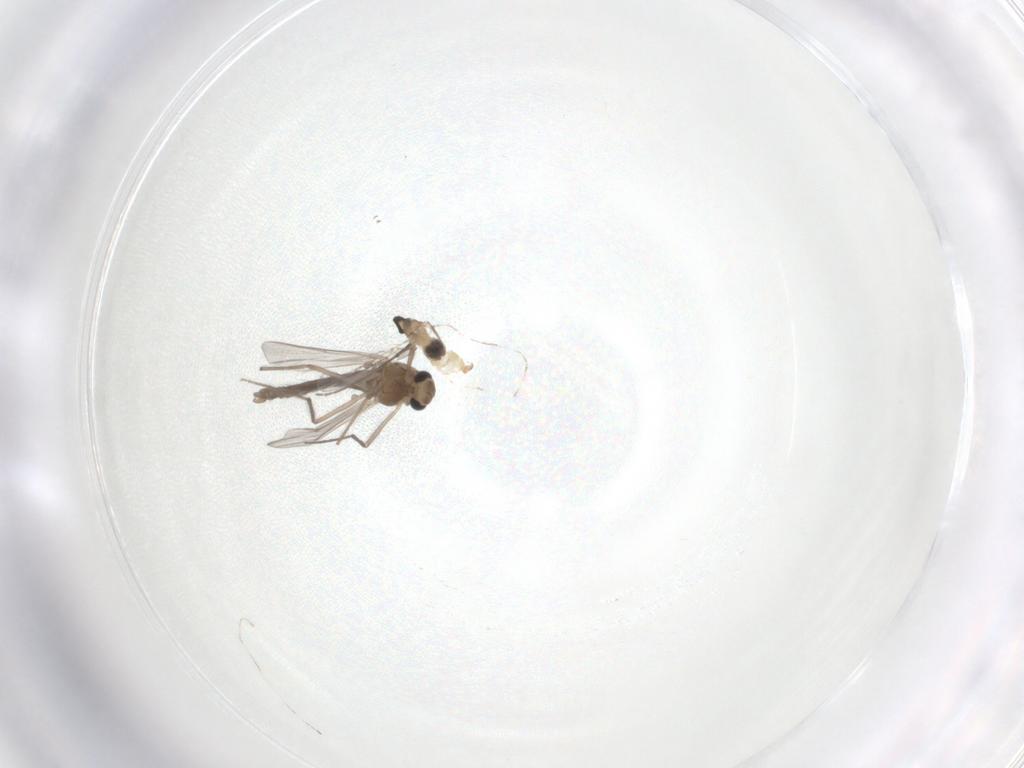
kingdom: Animalia
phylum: Arthropoda
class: Insecta
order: Diptera
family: Cecidomyiidae
